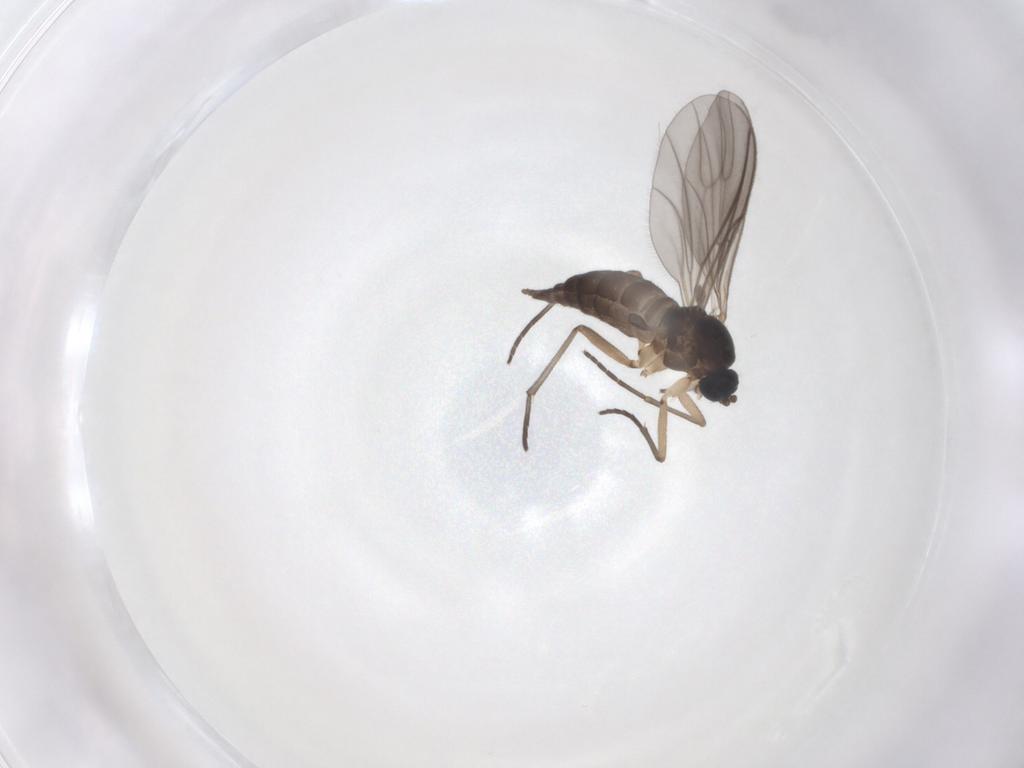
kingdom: Animalia
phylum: Arthropoda
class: Insecta
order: Diptera
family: Sciaridae
